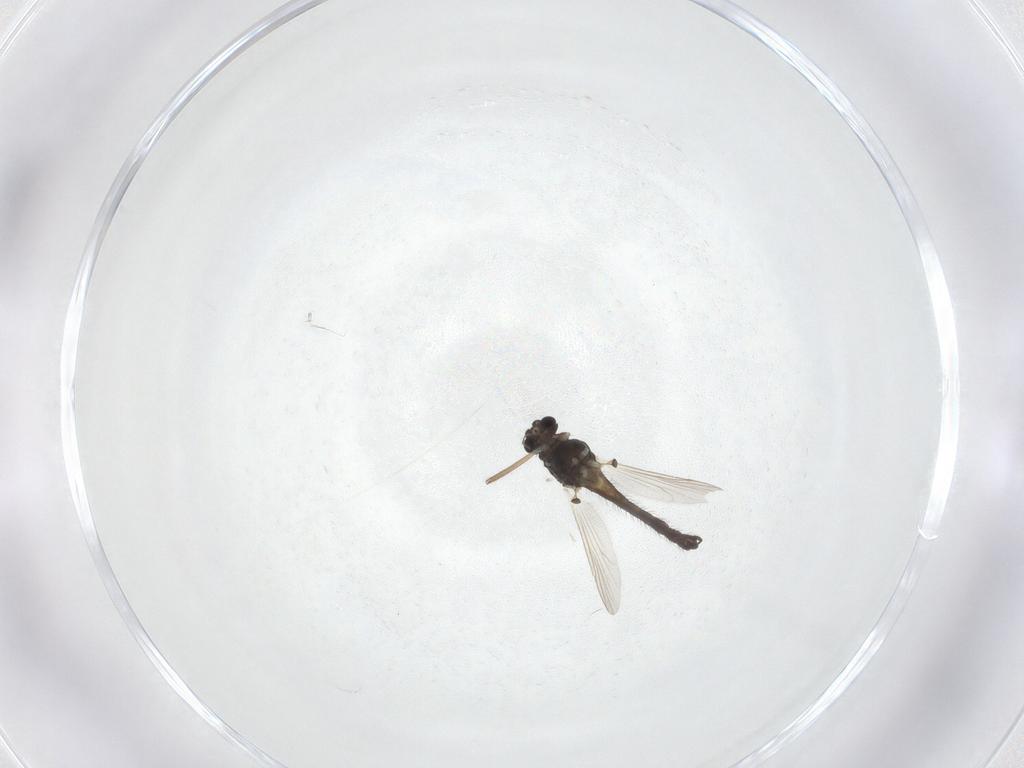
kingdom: Animalia
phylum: Arthropoda
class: Insecta
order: Diptera
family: Chironomidae
